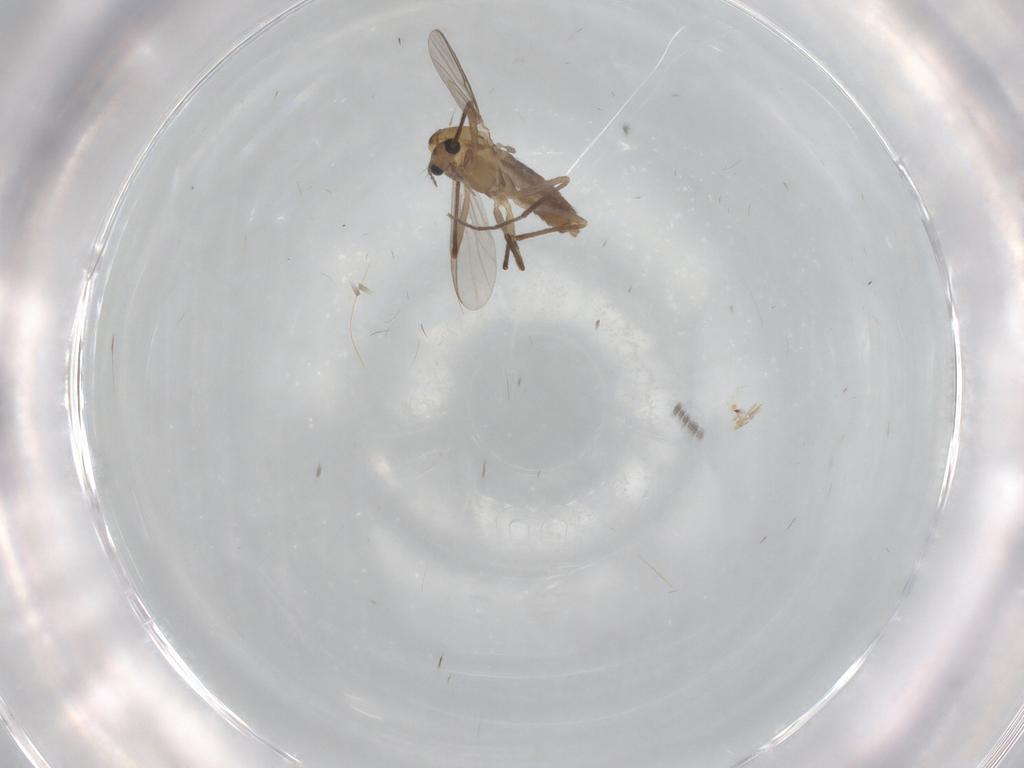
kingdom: Animalia
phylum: Arthropoda
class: Insecta
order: Diptera
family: Chironomidae
